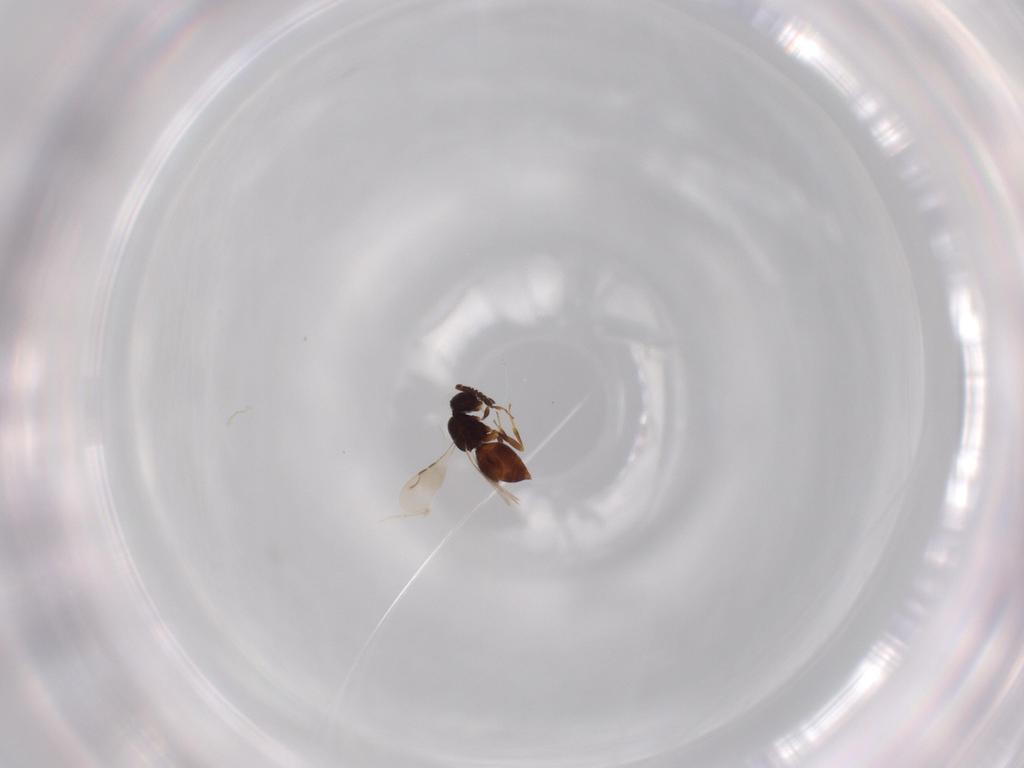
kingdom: Animalia
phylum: Arthropoda
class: Insecta
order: Hymenoptera
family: Ceraphronidae
